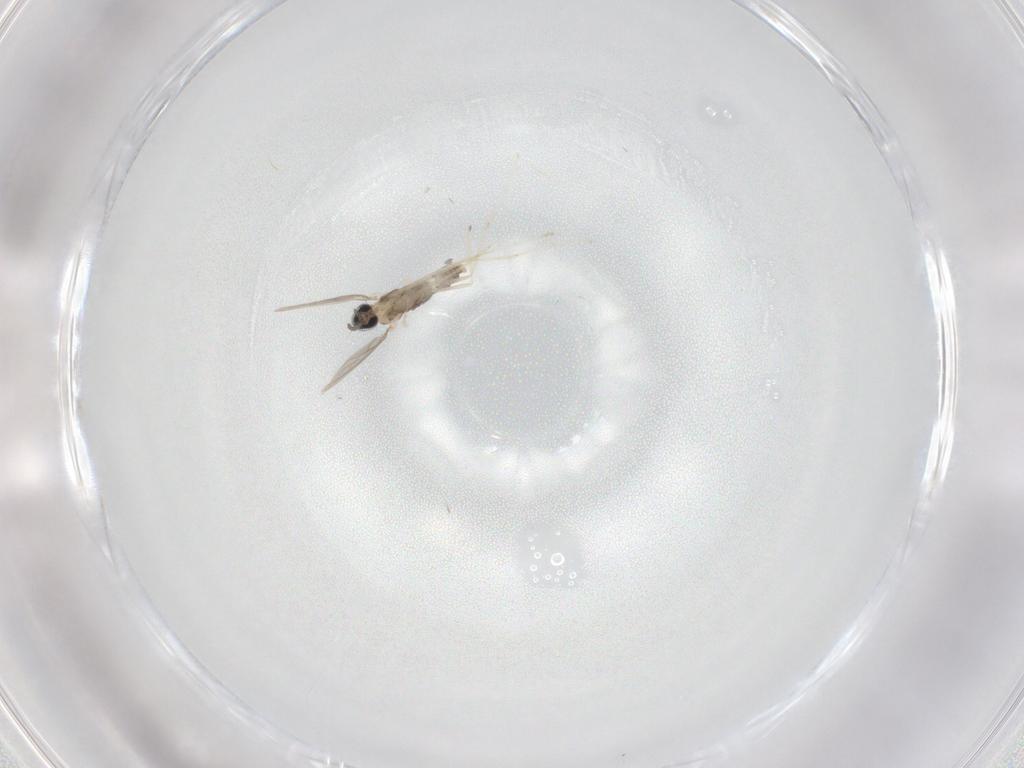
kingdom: Animalia
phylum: Arthropoda
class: Insecta
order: Diptera
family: Cecidomyiidae
